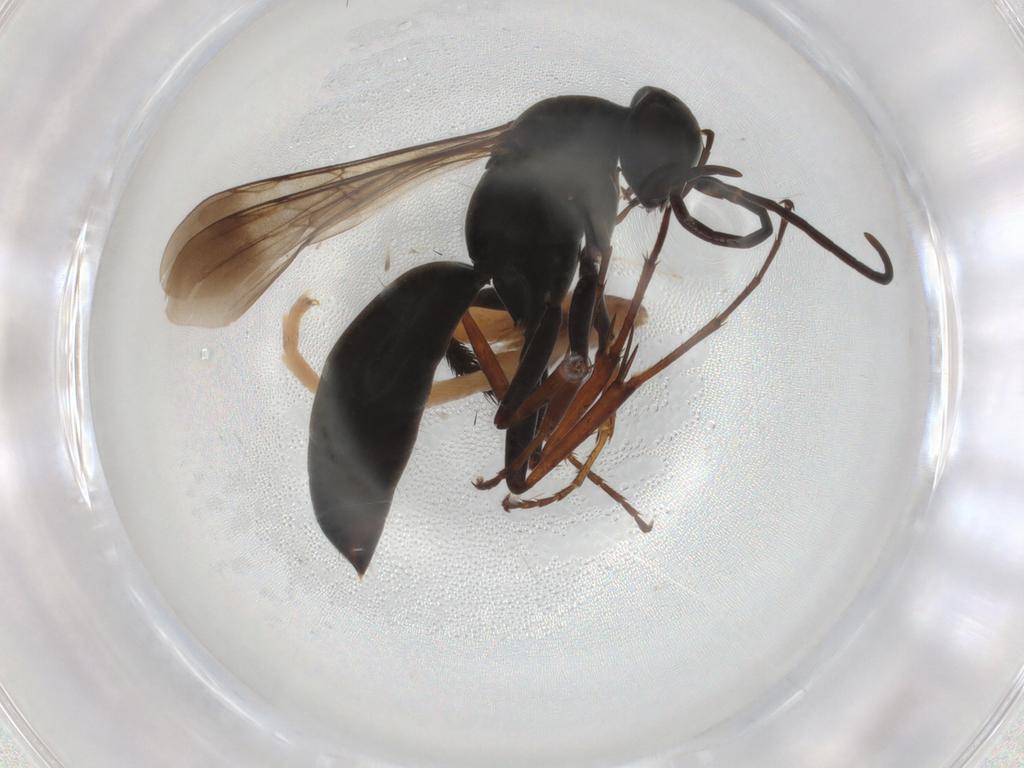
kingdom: Animalia
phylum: Arthropoda
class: Insecta
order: Hymenoptera
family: Pompilidae
